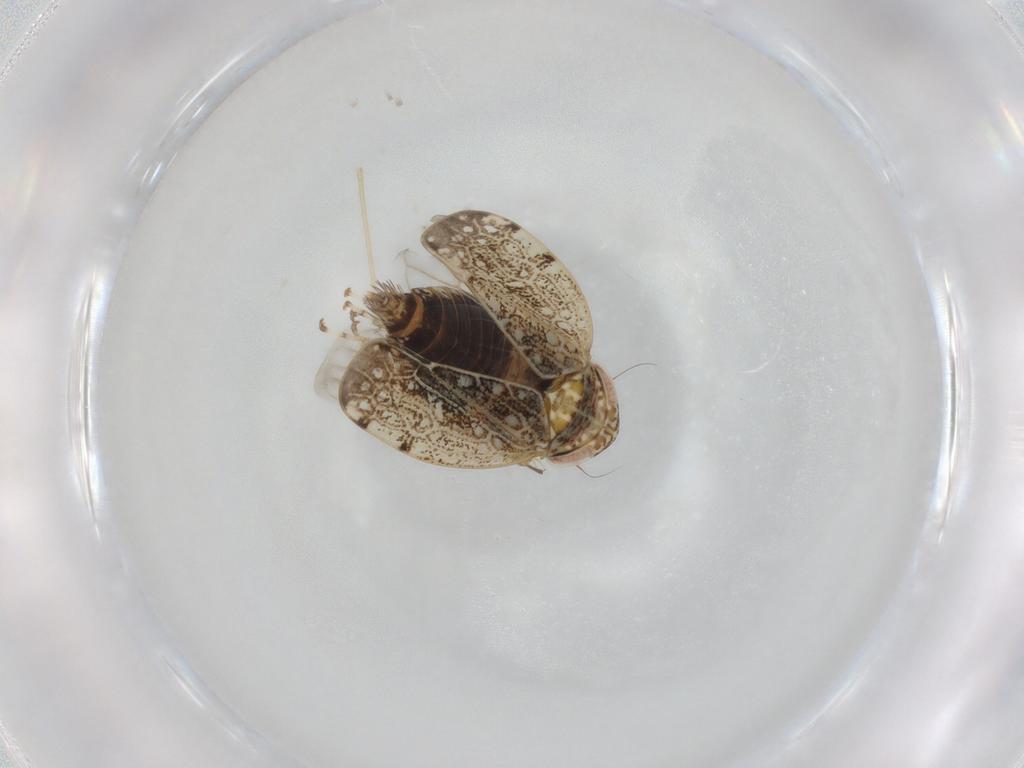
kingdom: Animalia
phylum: Arthropoda
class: Insecta
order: Hemiptera
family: Cicadellidae
